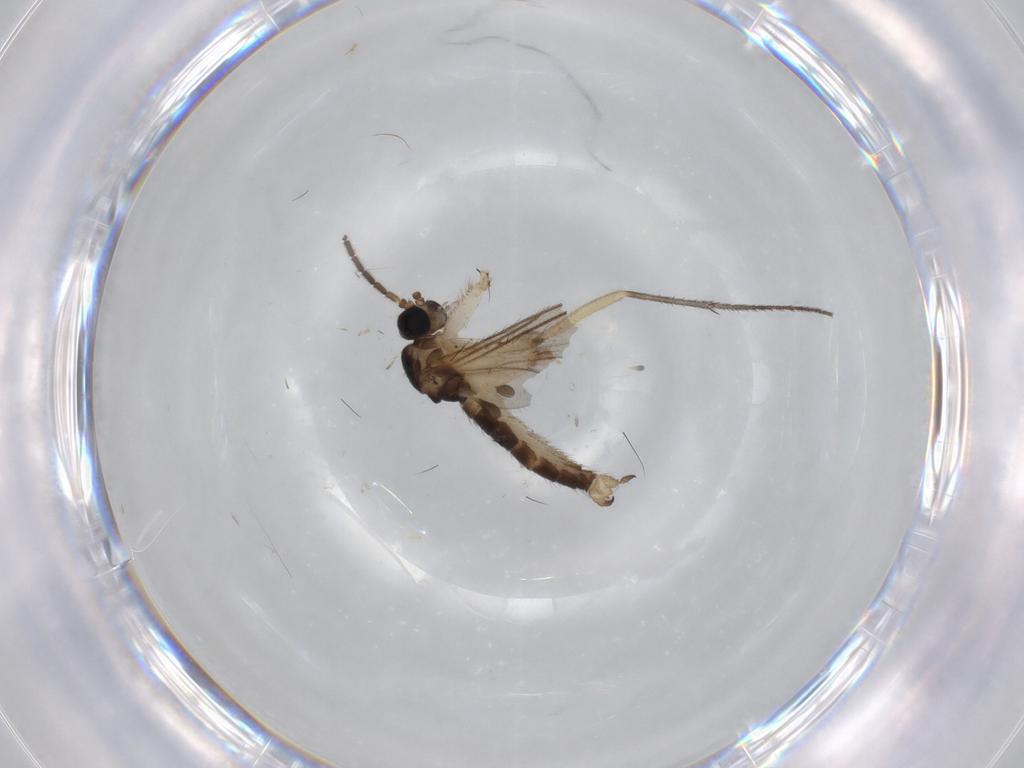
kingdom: Animalia
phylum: Arthropoda
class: Insecta
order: Diptera
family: Sciaridae
